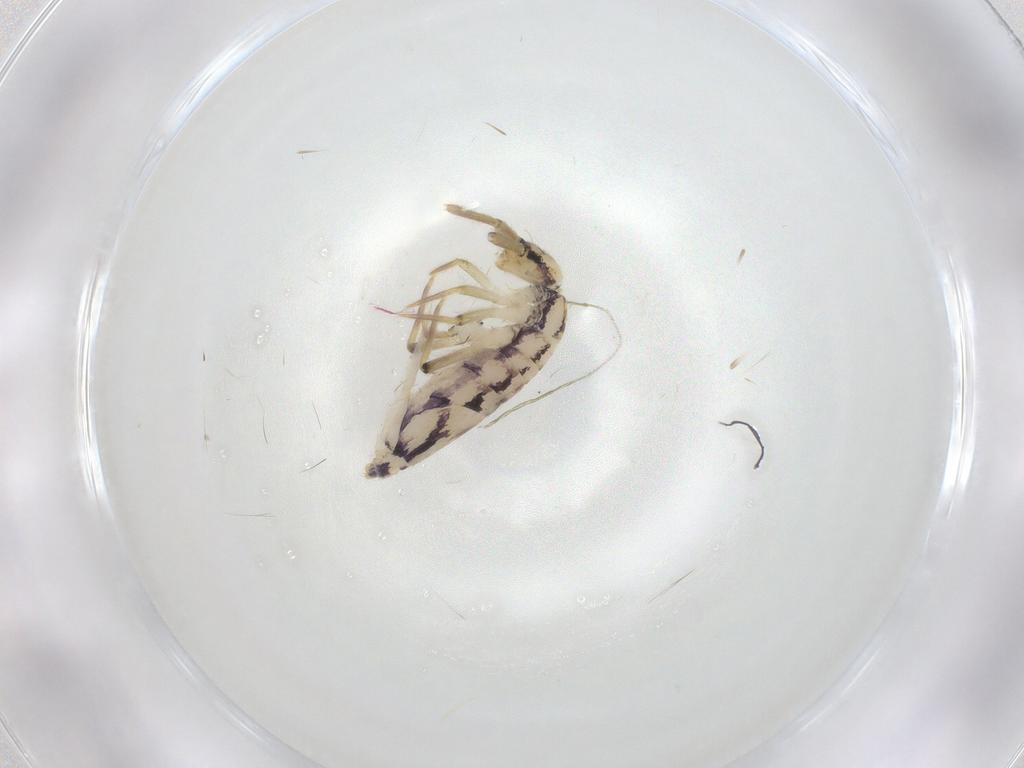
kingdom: Animalia
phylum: Arthropoda
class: Collembola
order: Entomobryomorpha
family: Entomobryidae
